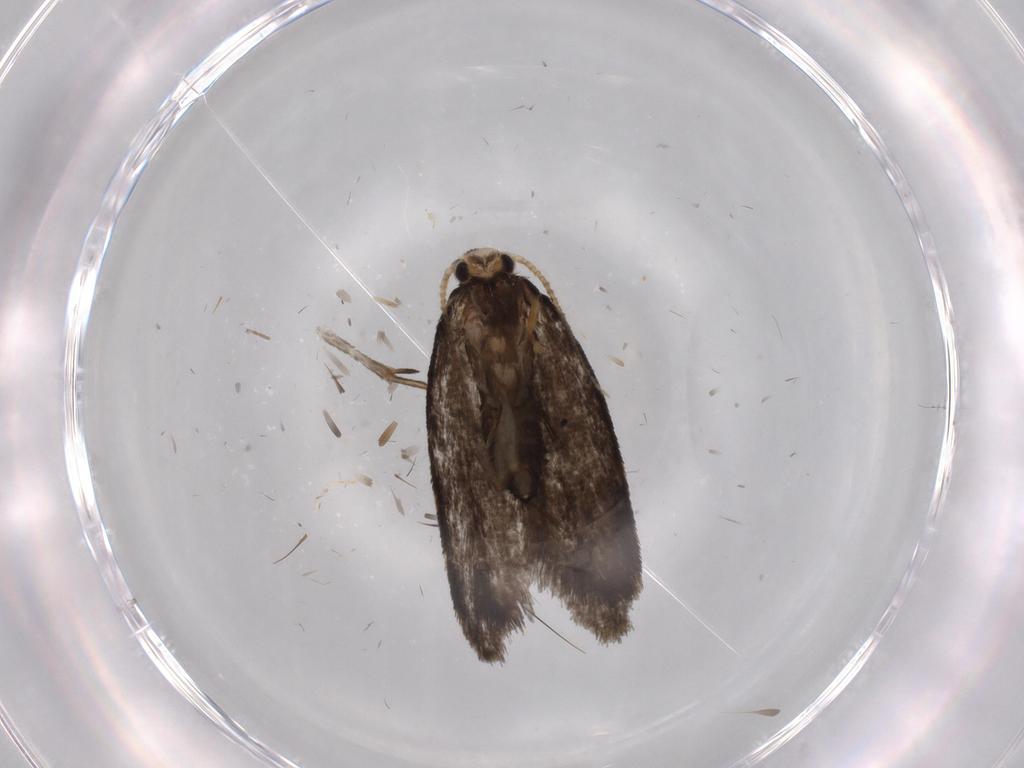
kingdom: Animalia
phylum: Arthropoda
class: Insecta
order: Lepidoptera
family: Psychidae
